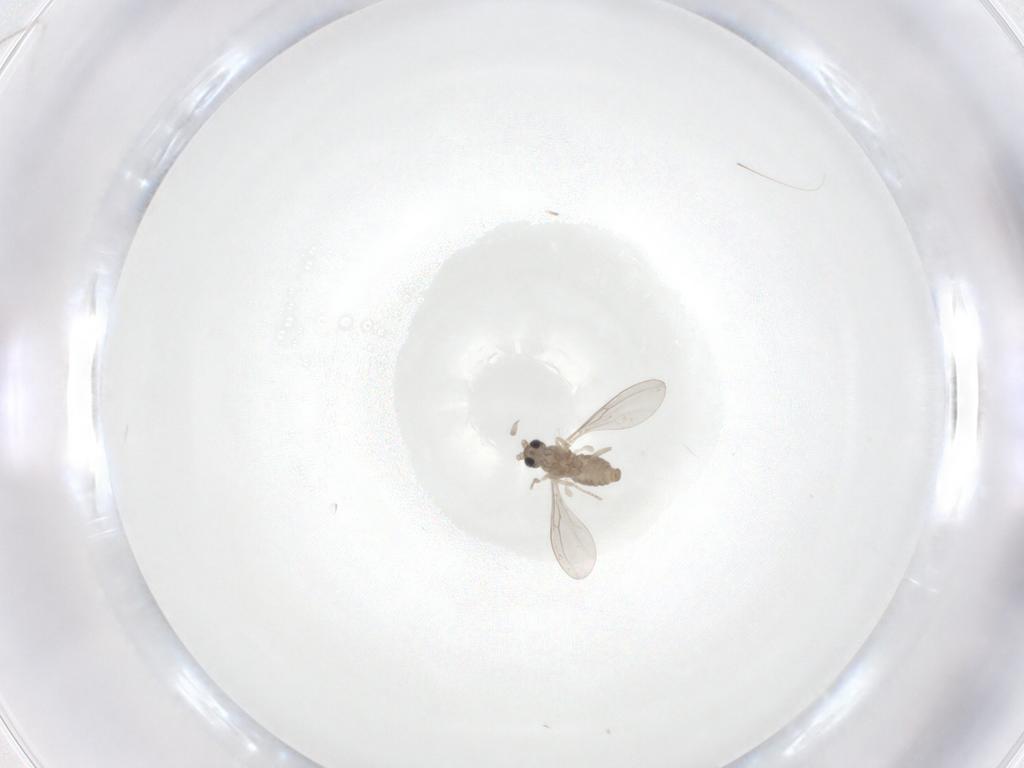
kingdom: Animalia
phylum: Arthropoda
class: Insecta
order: Diptera
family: Cecidomyiidae
